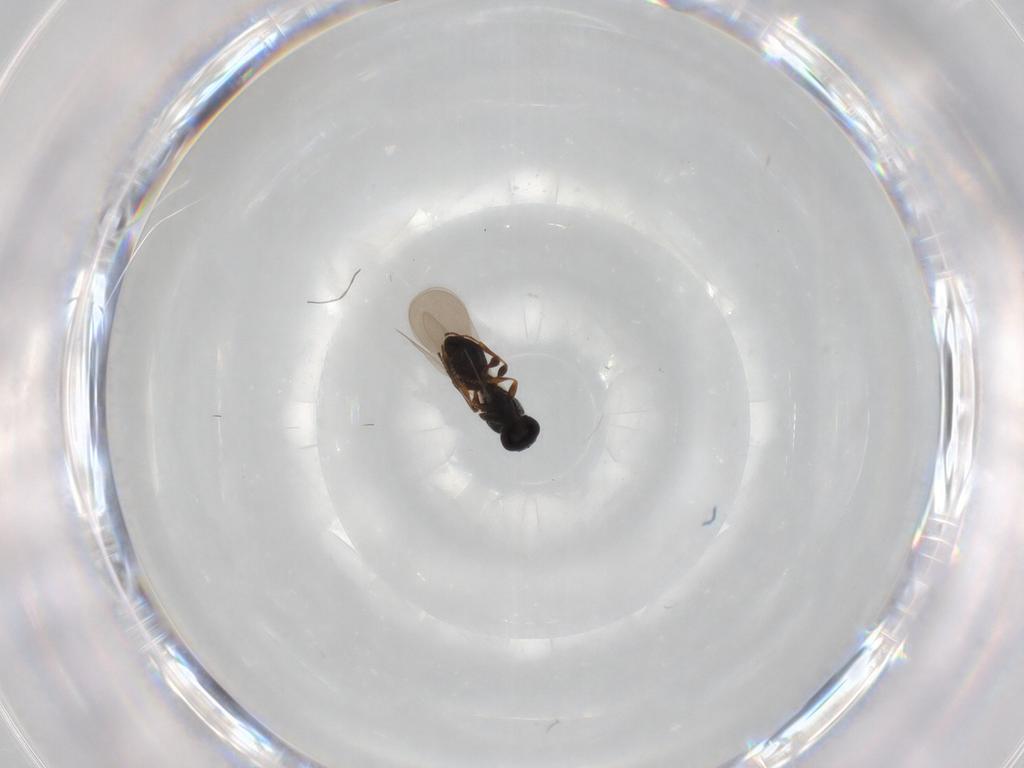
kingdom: Animalia
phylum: Arthropoda
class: Insecta
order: Hymenoptera
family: Platygastridae
